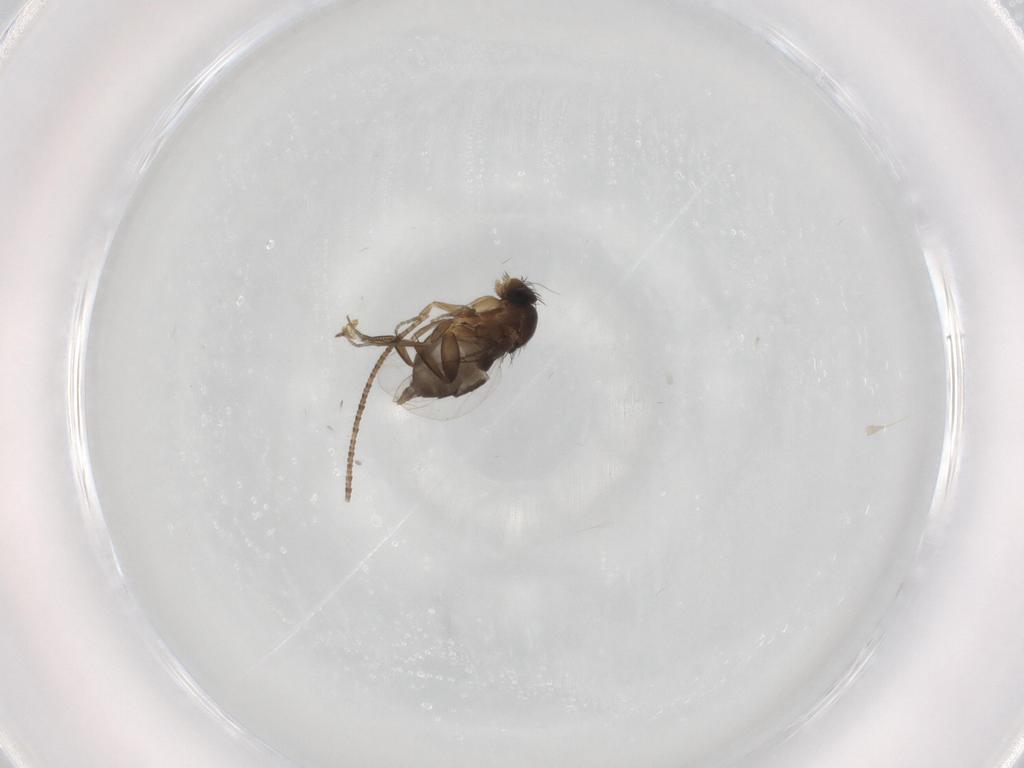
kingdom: Animalia
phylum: Arthropoda
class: Insecta
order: Diptera
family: Phoridae
